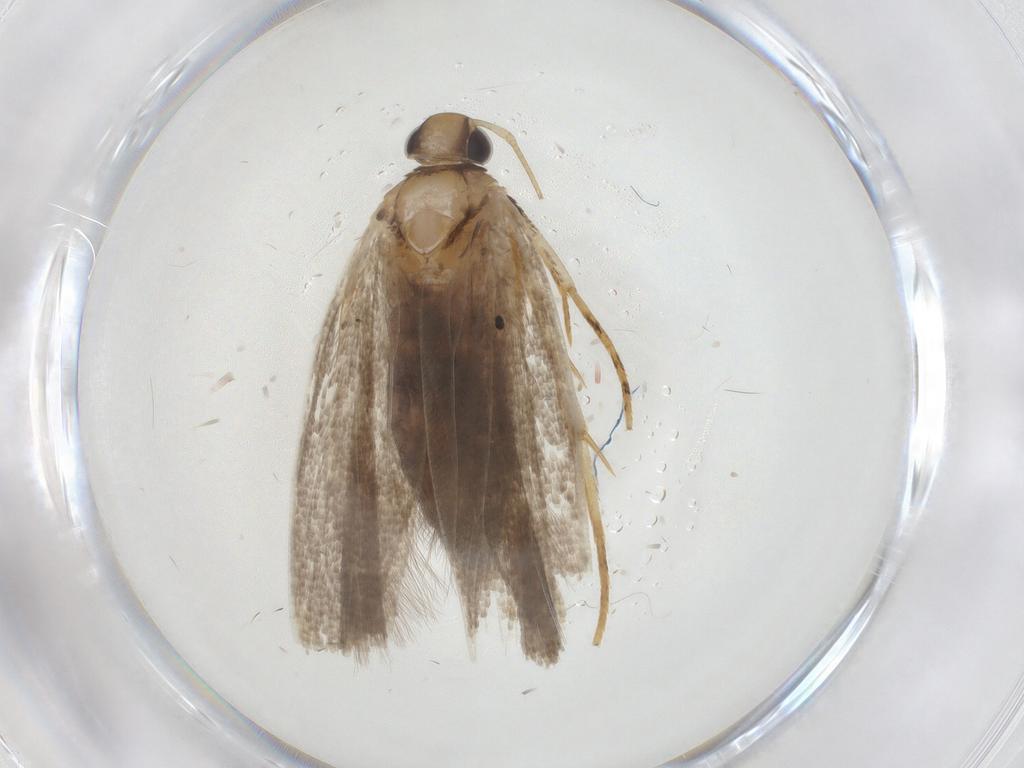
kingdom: Animalia
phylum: Arthropoda
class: Insecta
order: Lepidoptera
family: Gelechiidae
